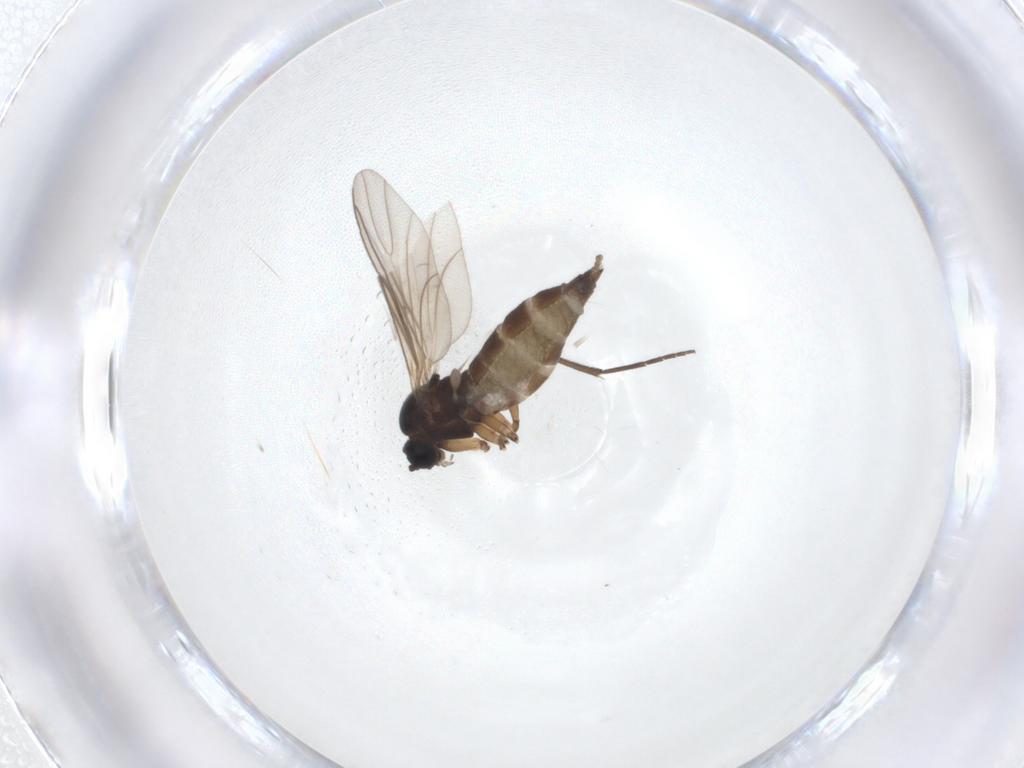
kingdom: Animalia
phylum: Arthropoda
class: Insecta
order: Diptera
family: Sciaridae
